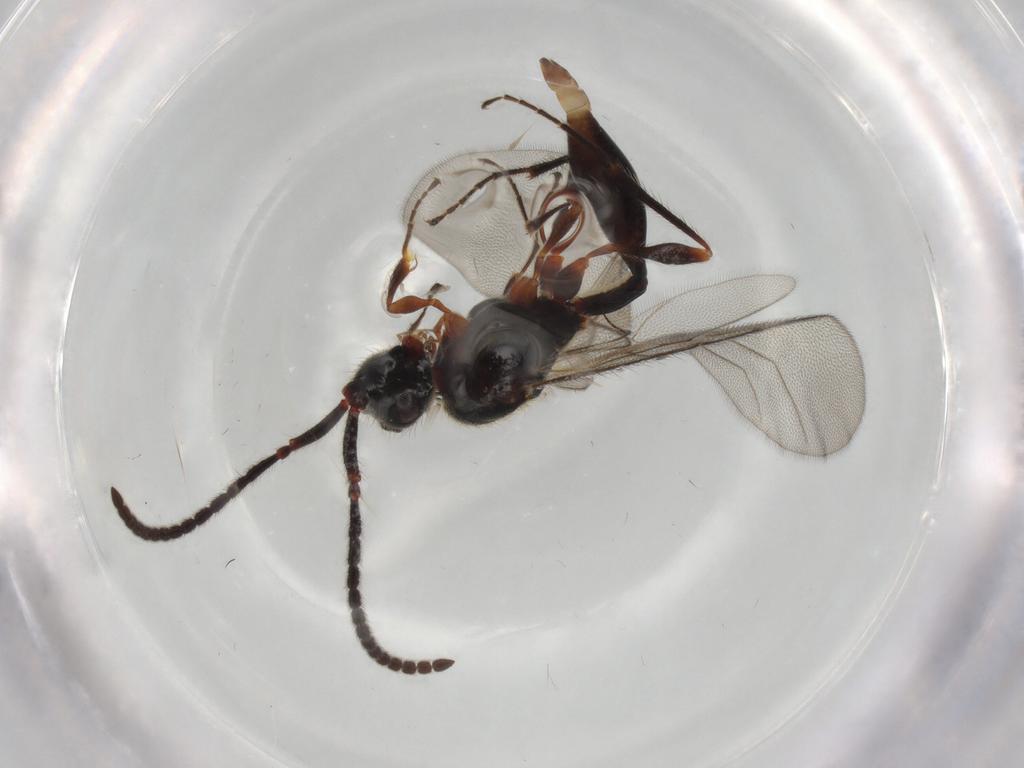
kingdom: Animalia
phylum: Arthropoda
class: Insecta
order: Hymenoptera
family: Diapriidae
